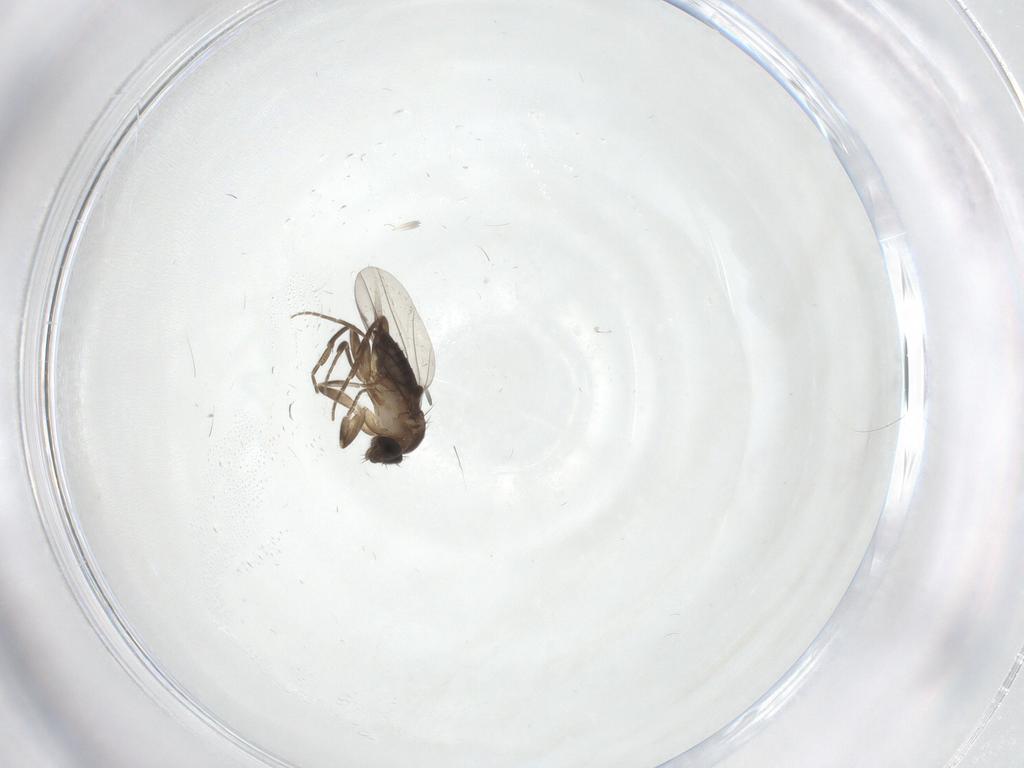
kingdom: Animalia
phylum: Arthropoda
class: Insecta
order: Diptera
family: Phoridae
